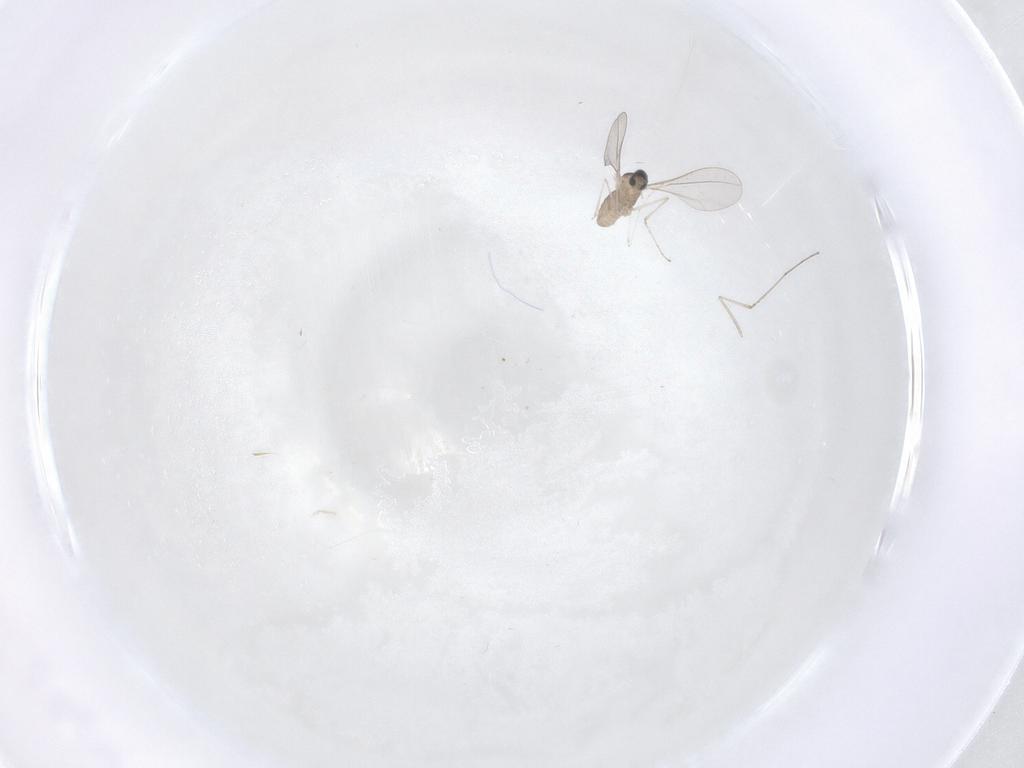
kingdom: Animalia
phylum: Arthropoda
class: Insecta
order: Diptera
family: Cecidomyiidae
